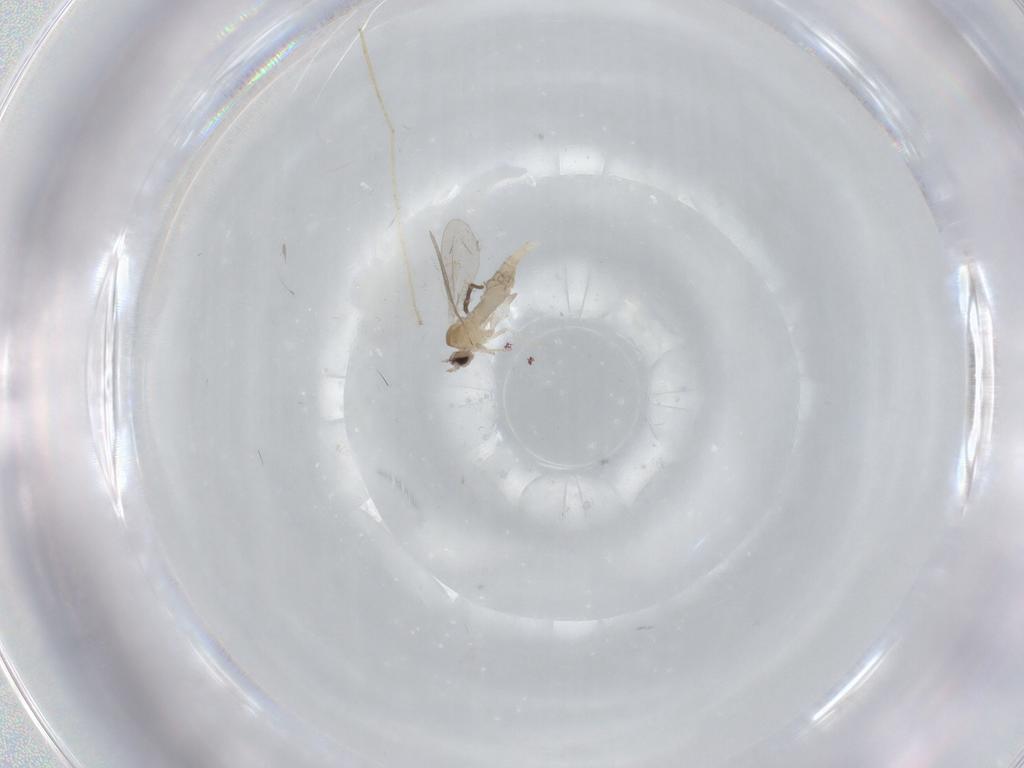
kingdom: Animalia
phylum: Arthropoda
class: Insecta
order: Diptera
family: Cecidomyiidae
